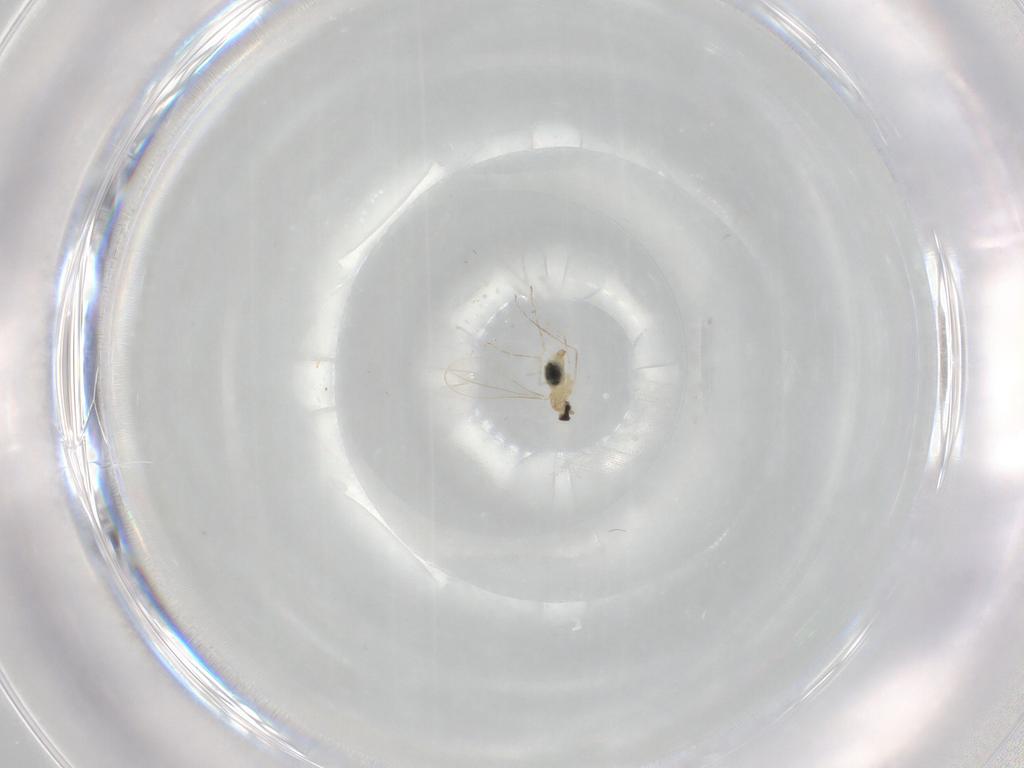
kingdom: Animalia
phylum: Arthropoda
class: Insecta
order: Diptera
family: Cecidomyiidae
